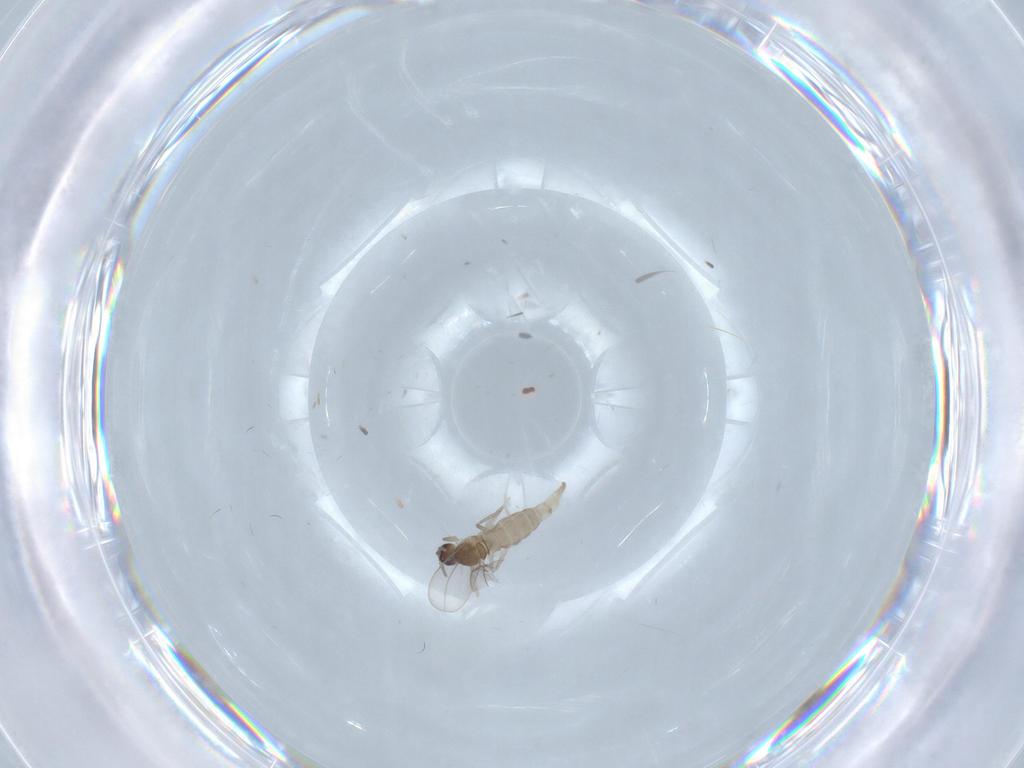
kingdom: Animalia
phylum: Arthropoda
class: Insecta
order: Diptera
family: Cecidomyiidae
